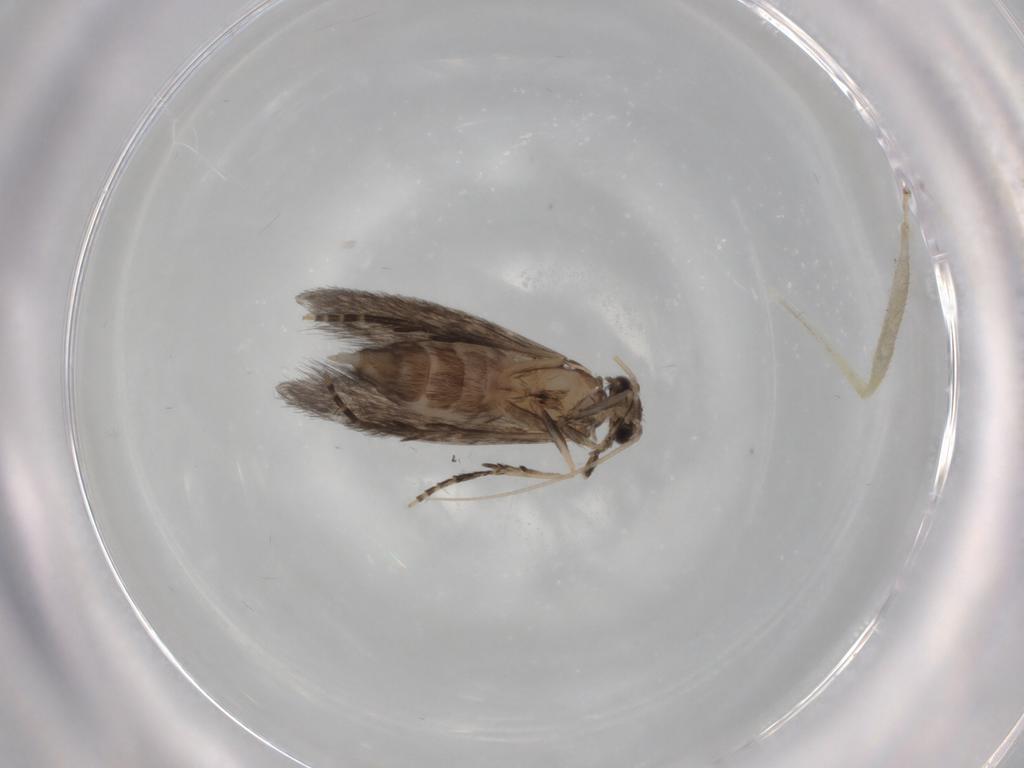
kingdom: Animalia
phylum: Arthropoda
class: Insecta
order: Trichoptera
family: Hydroptilidae
